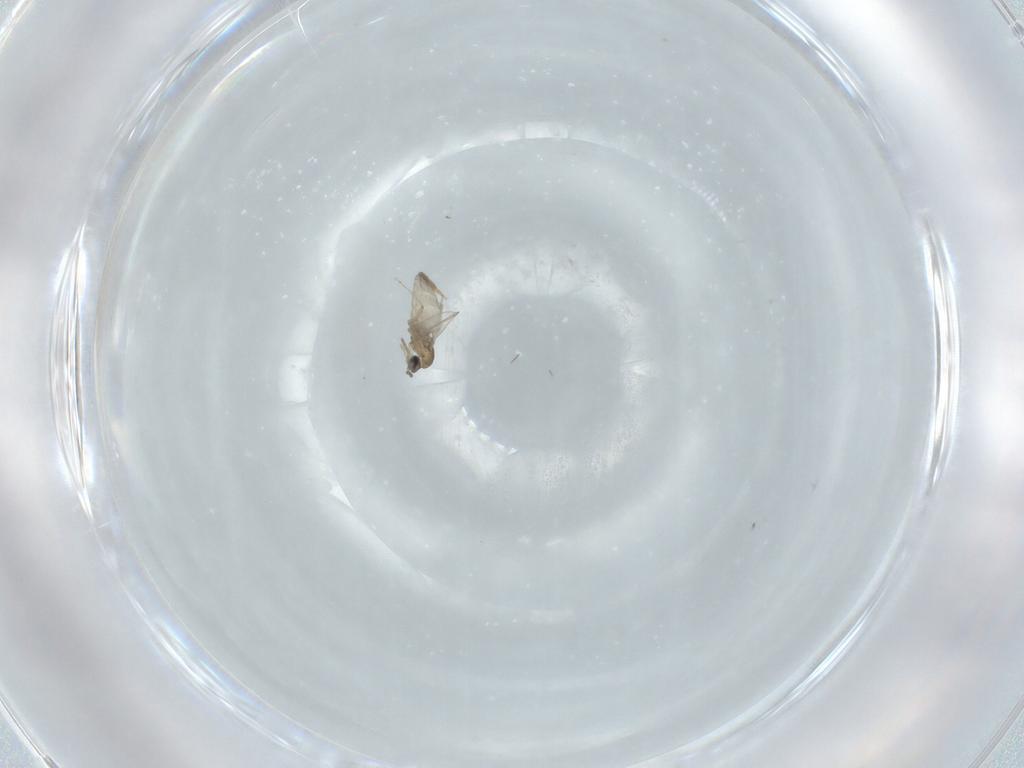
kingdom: Animalia
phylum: Arthropoda
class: Insecta
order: Diptera
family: Cecidomyiidae
